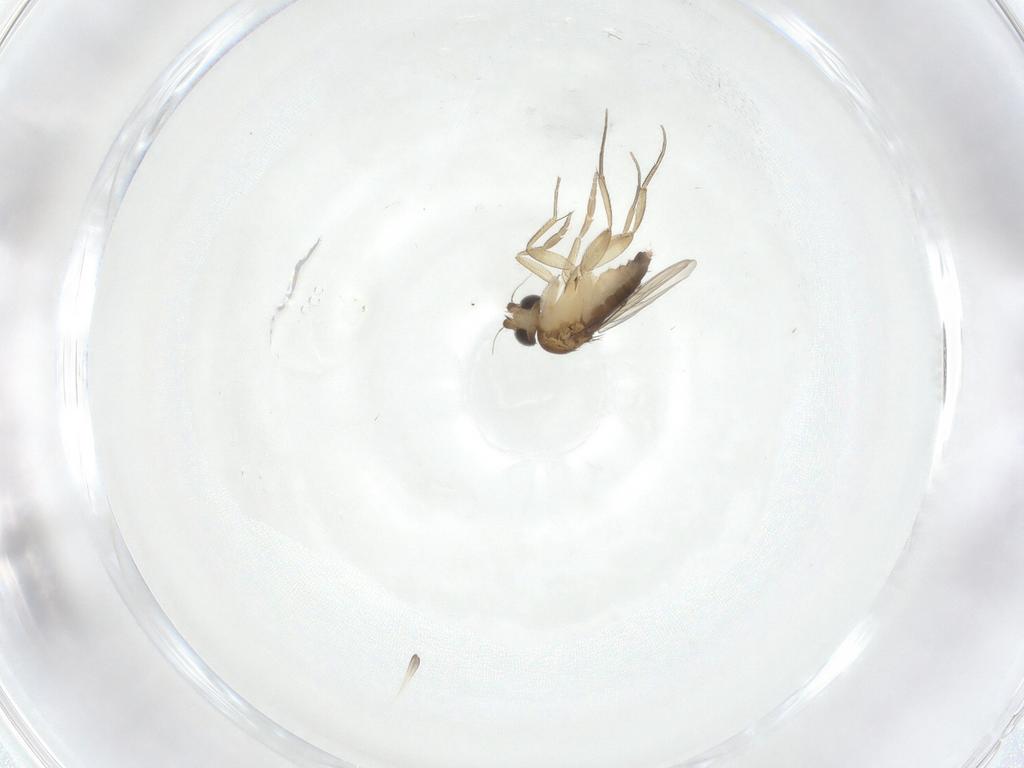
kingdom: Animalia
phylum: Arthropoda
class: Insecta
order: Diptera
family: Phoridae
